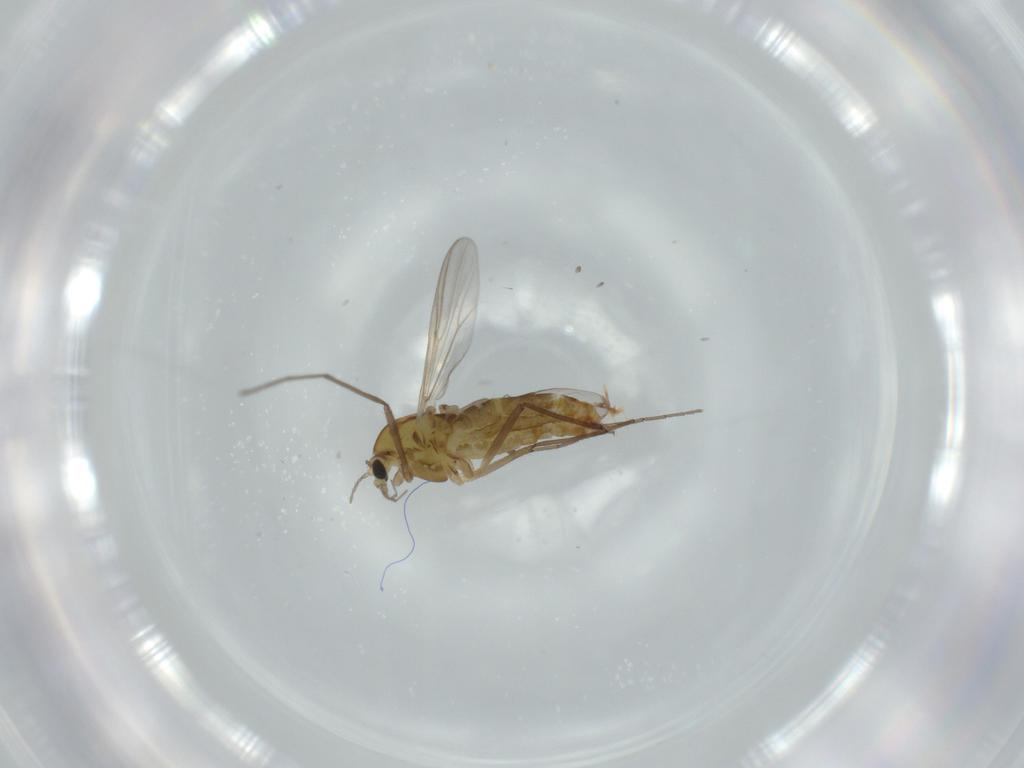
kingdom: Animalia
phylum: Arthropoda
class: Insecta
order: Diptera
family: Chironomidae
